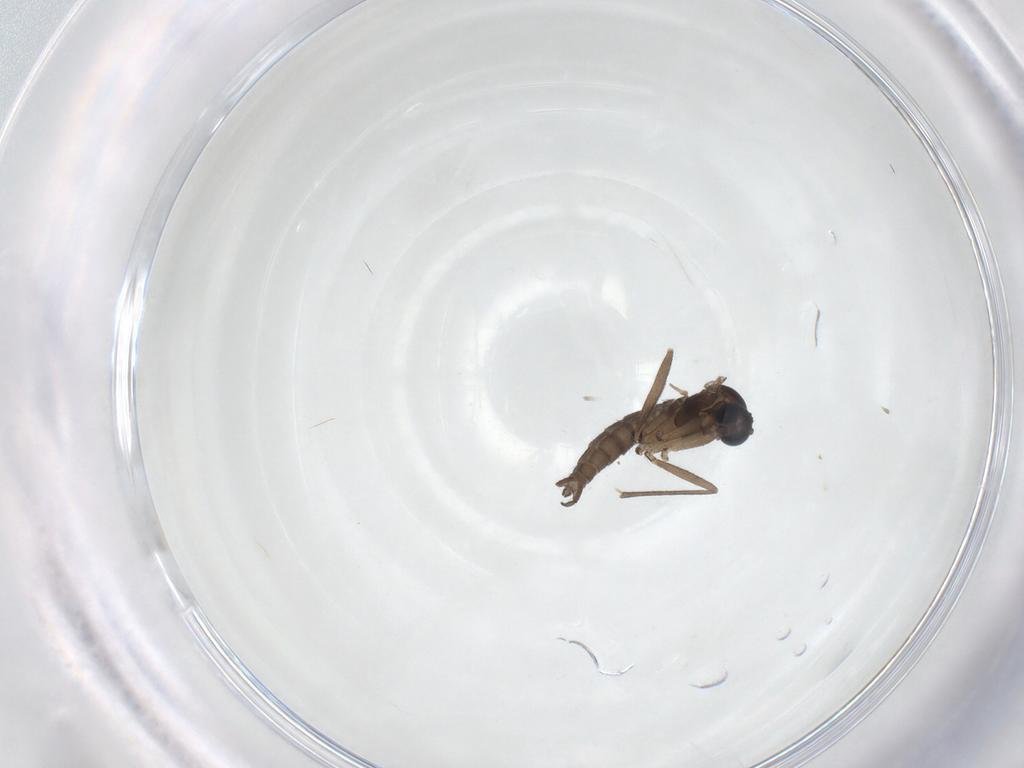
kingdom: Animalia
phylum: Arthropoda
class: Insecta
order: Diptera
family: Sciaridae
